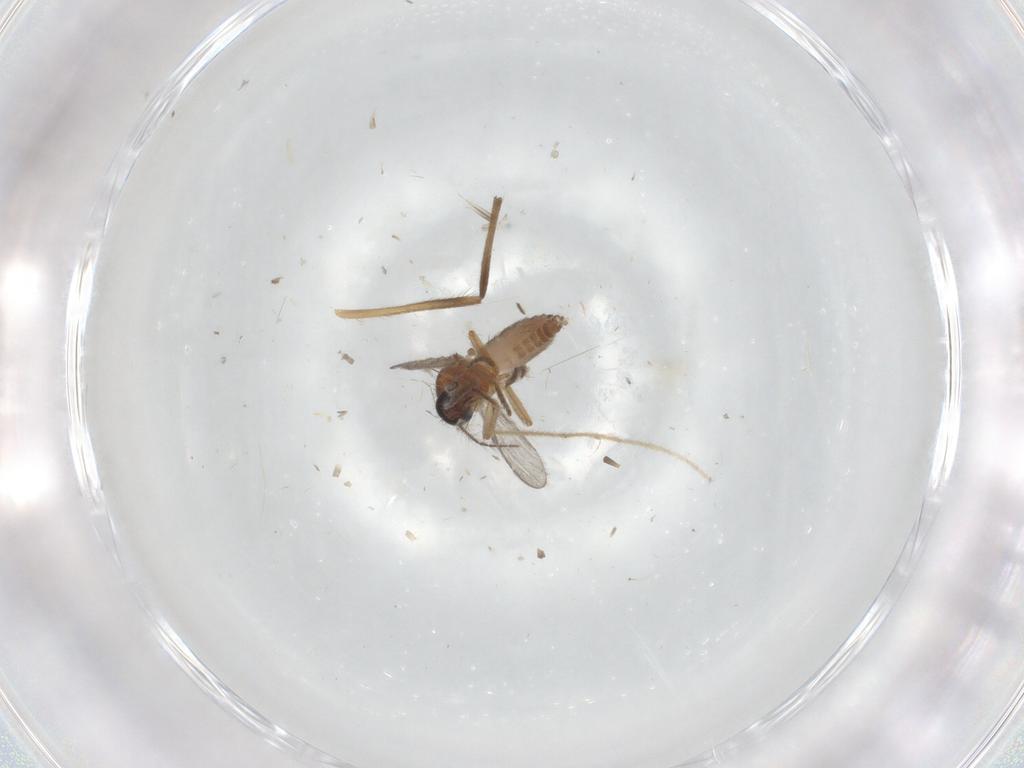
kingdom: Animalia
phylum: Arthropoda
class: Insecta
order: Diptera
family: Ceratopogonidae
